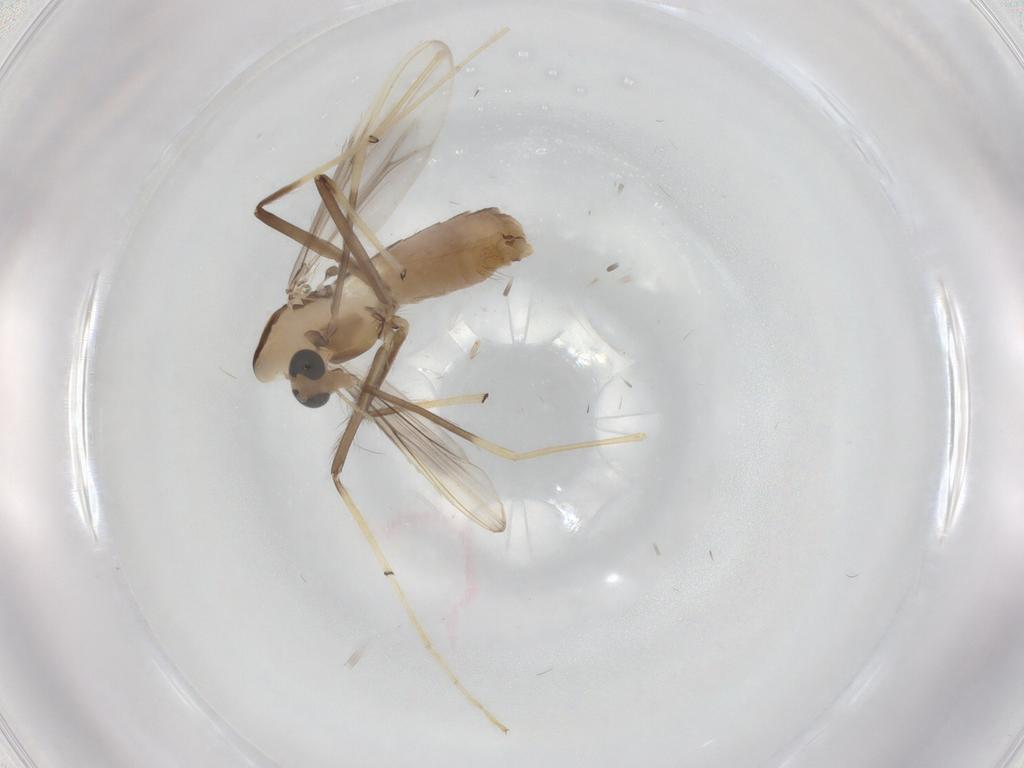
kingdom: Animalia
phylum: Arthropoda
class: Insecta
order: Diptera
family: Chironomidae
